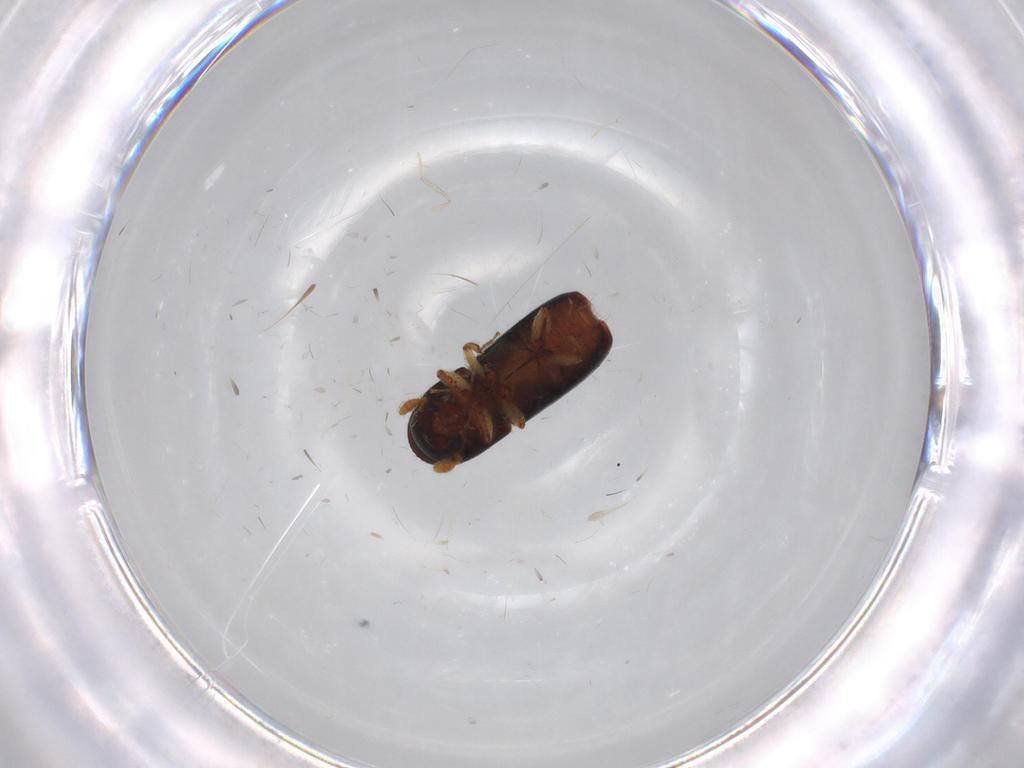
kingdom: Animalia
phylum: Arthropoda
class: Insecta
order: Coleoptera
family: Curculionidae
